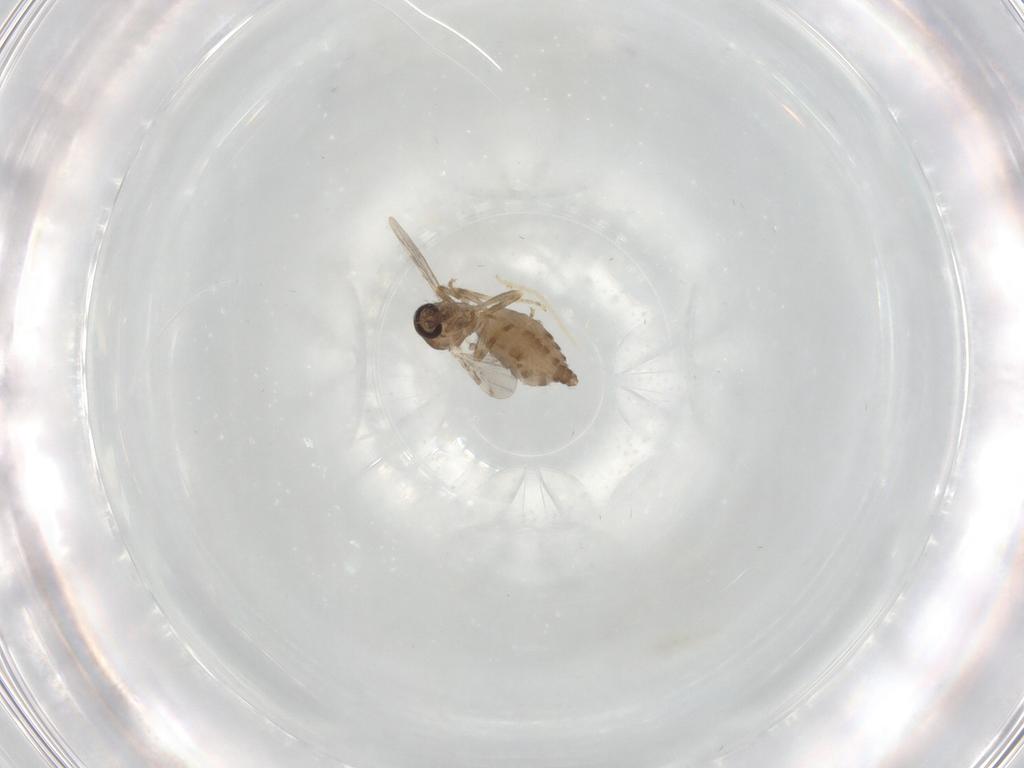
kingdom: Animalia
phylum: Arthropoda
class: Insecta
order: Diptera
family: Ceratopogonidae
